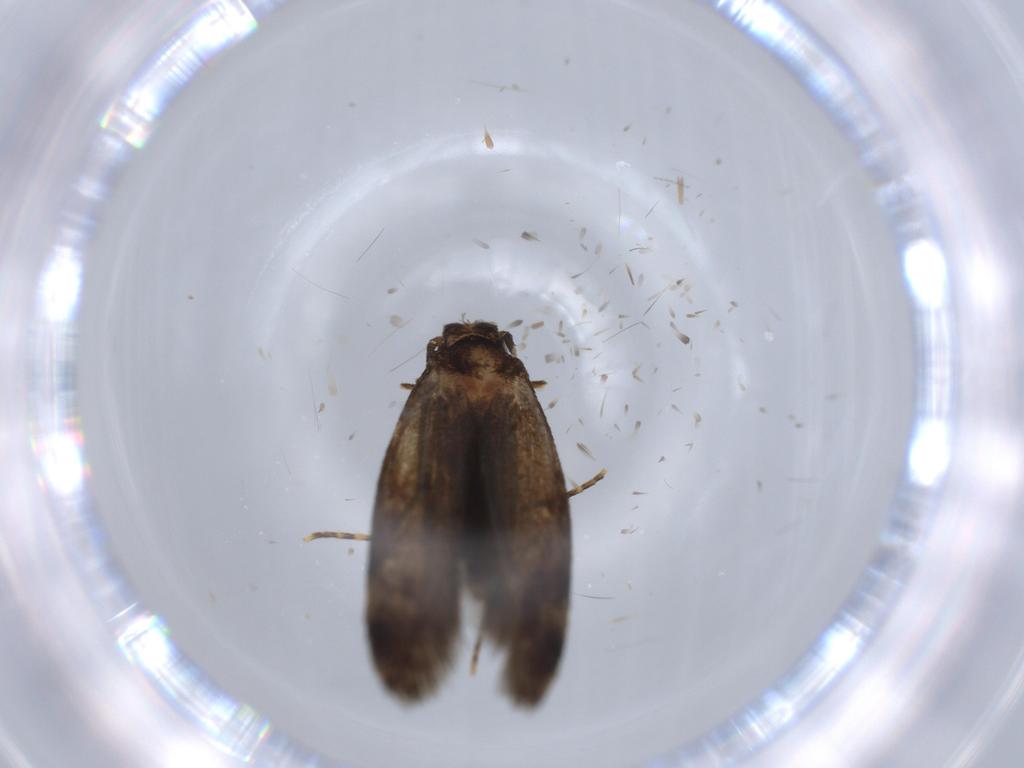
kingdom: Animalia
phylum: Arthropoda
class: Insecta
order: Lepidoptera
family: Tineidae
